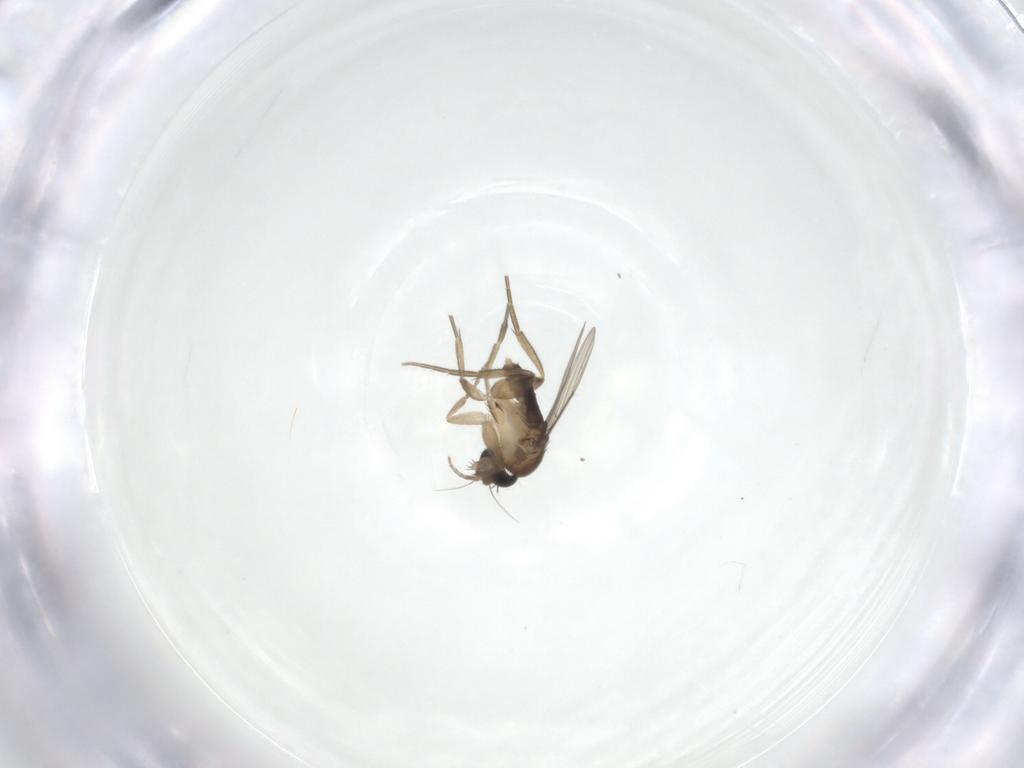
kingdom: Animalia
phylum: Arthropoda
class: Insecta
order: Diptera
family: Phoridae
